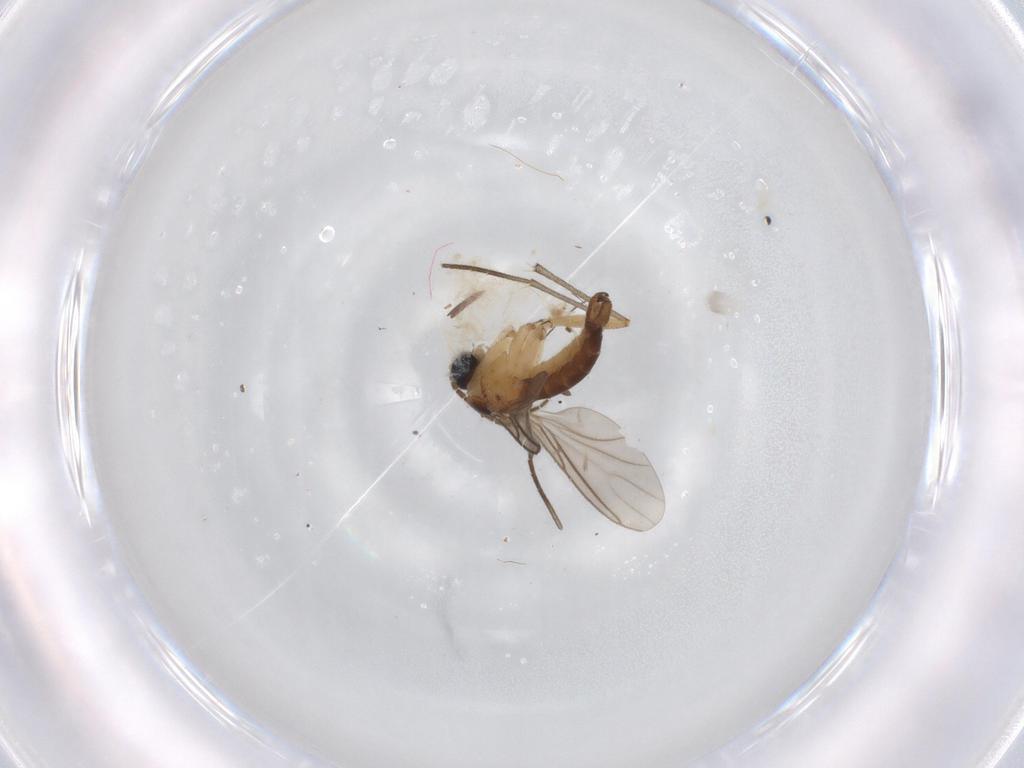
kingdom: Animalia
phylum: Arthropoda
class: Insecta
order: Diptera
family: Sciaridae
